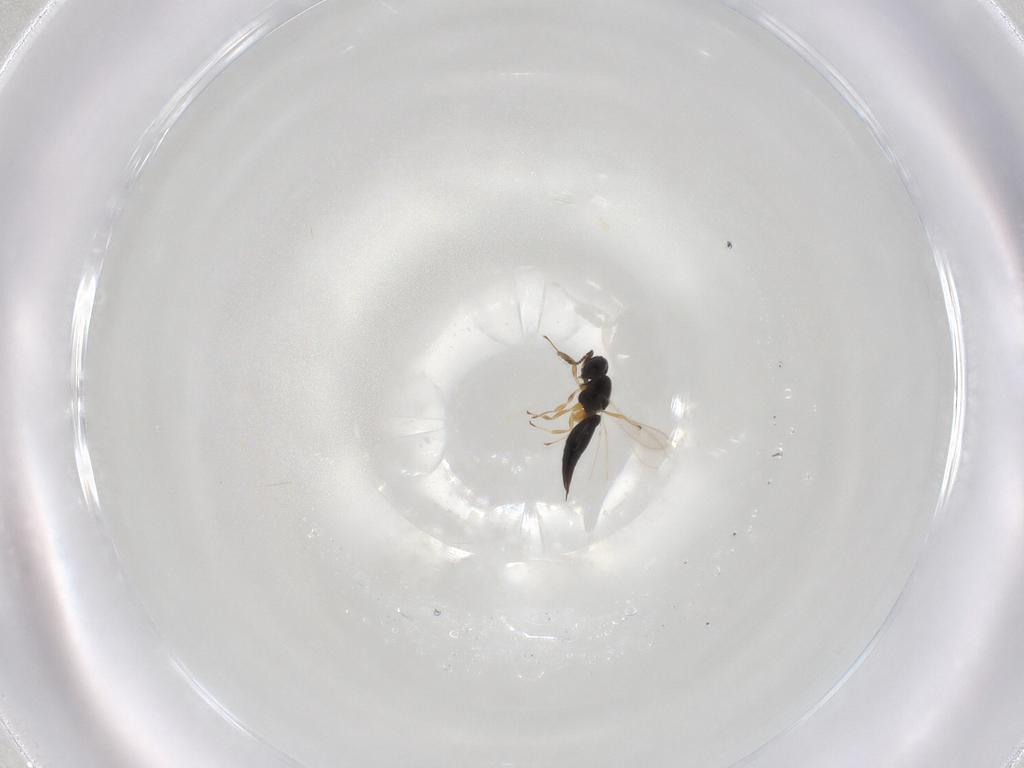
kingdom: Animalia
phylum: Arthropoda
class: Insecta
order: Hymenoptera
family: Scelionidae
